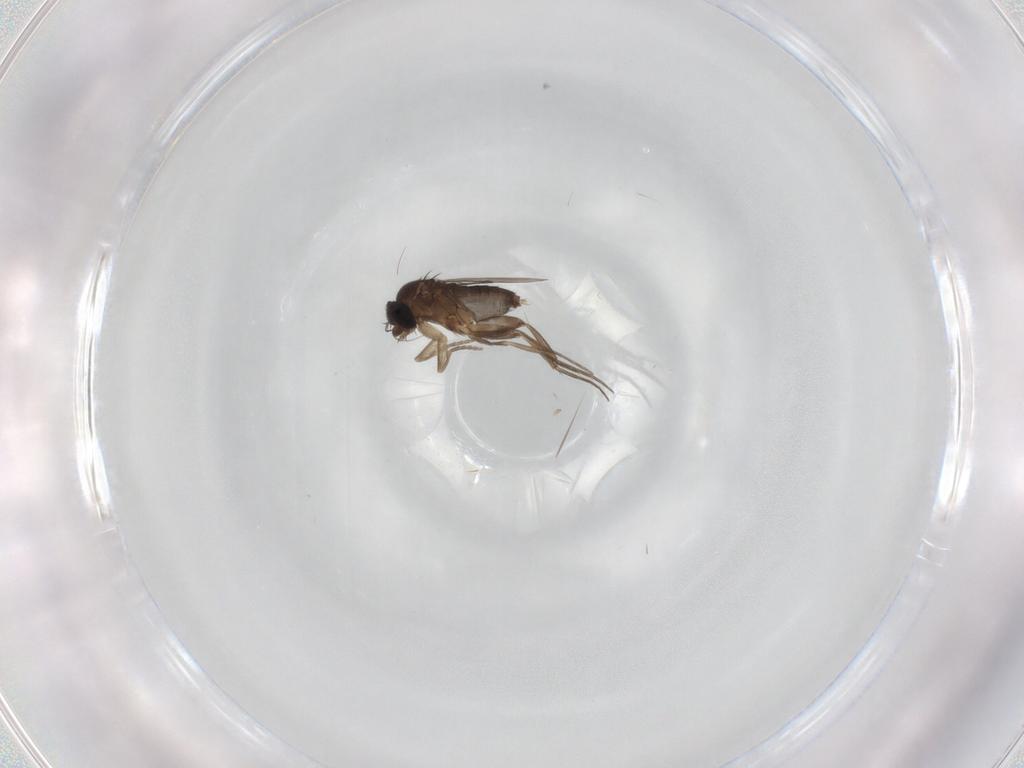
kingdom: Animalia
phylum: Arthropoda
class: Insecta
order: Diptera
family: Phoridae
